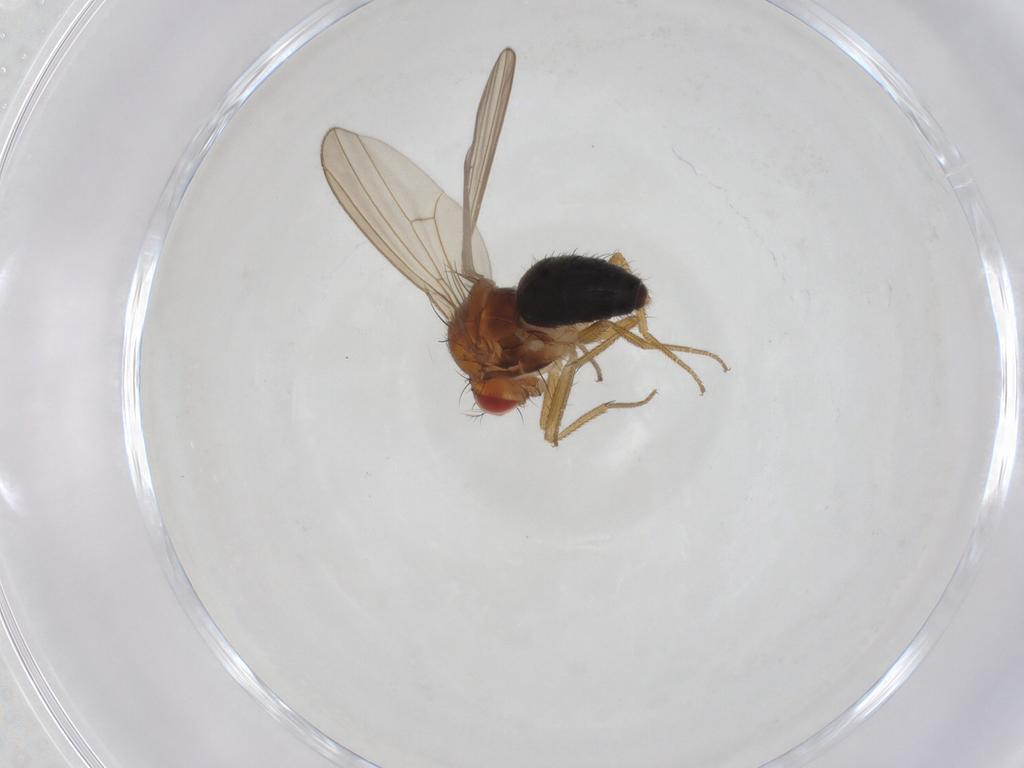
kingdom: Animalia
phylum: Arthropoda
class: Insecta
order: Diptera
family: Drosophilidae
